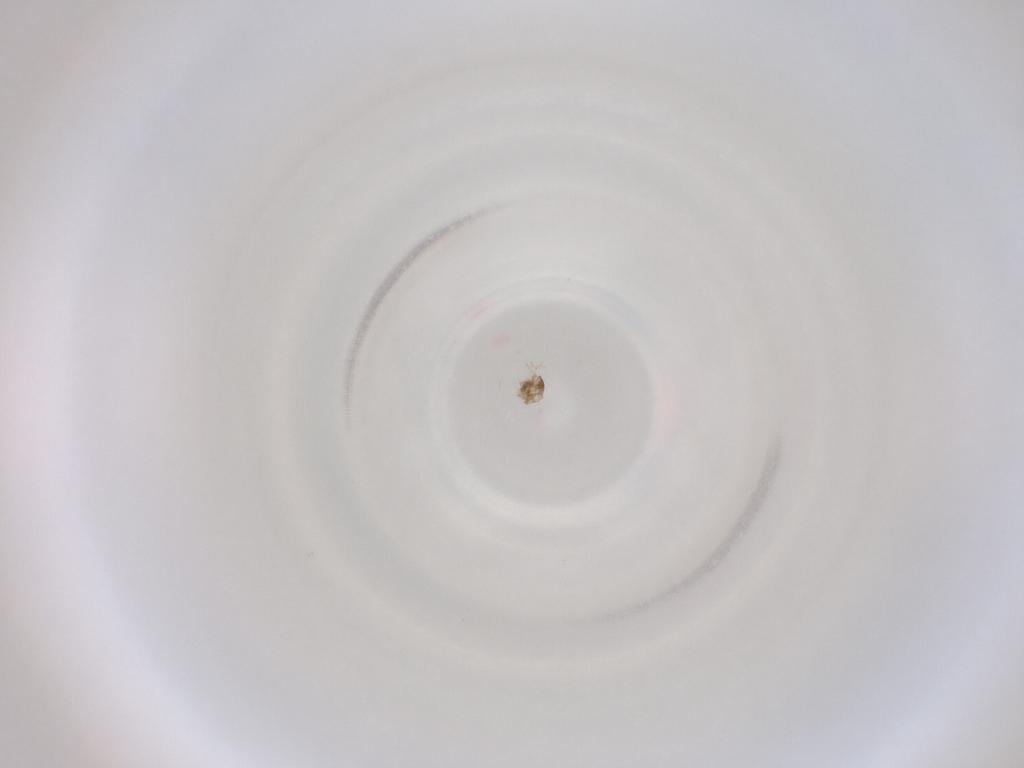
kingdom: Animalia
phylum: Arthropoda
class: Insecta
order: Diptera
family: Cecidomyiidae
